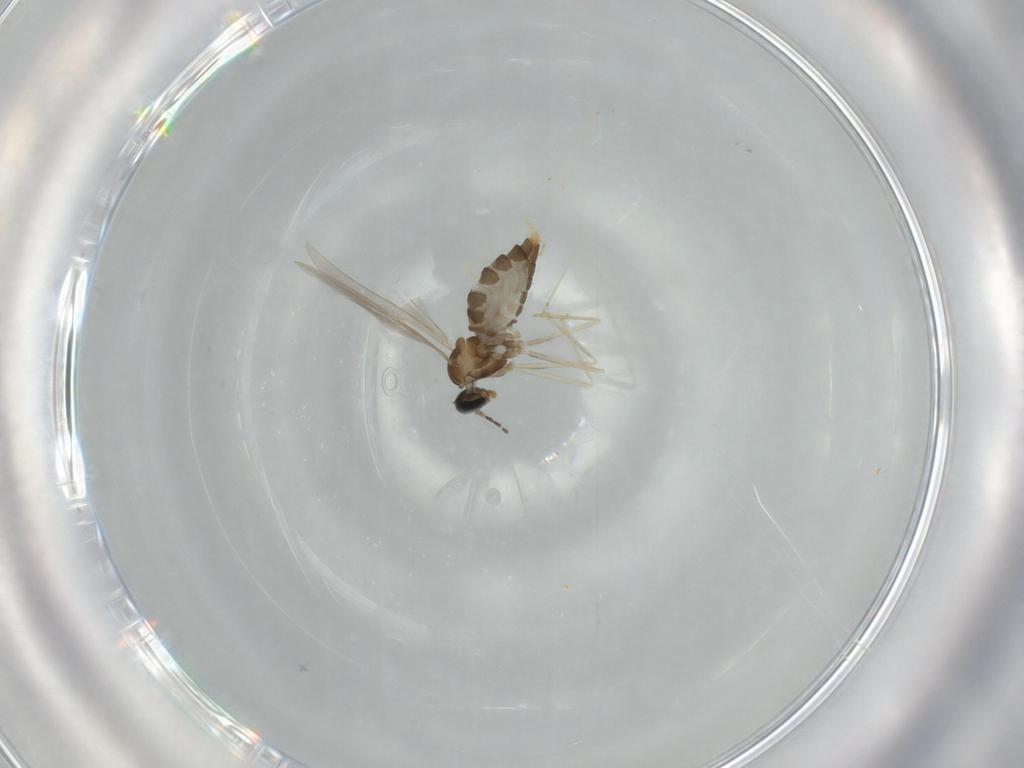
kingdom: Animalia
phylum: Arthropoda
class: Insecta
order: Diptera
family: Cecidomyiidae
